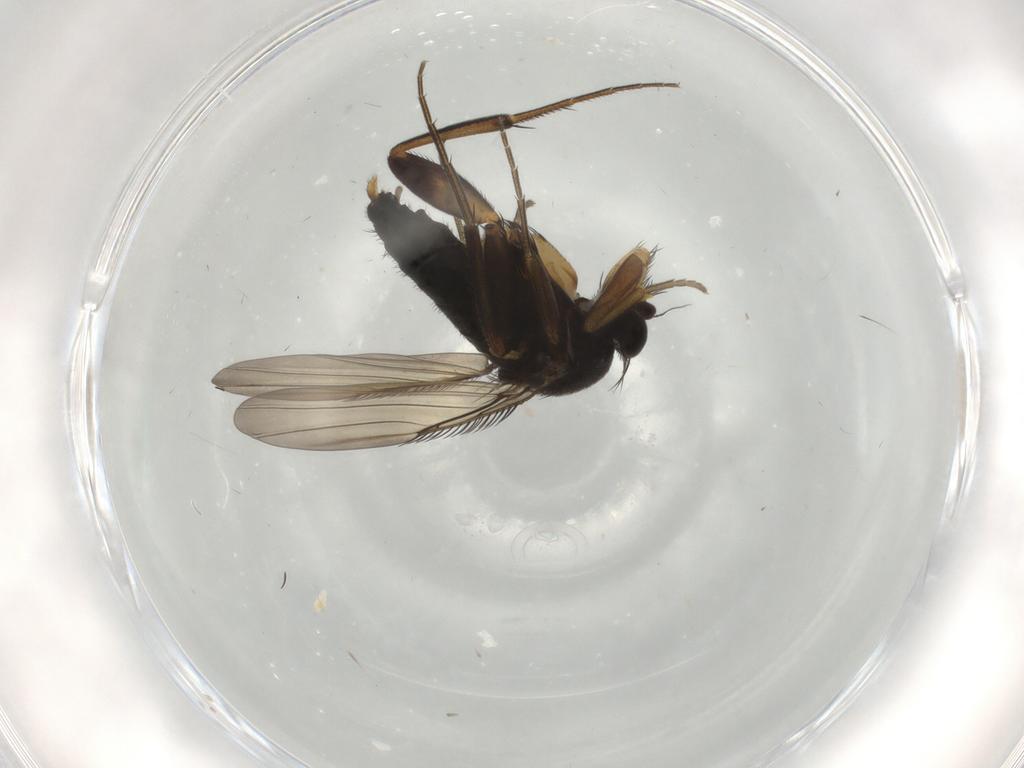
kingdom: Animalia
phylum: Arthropoda
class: Insecta
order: Diptera
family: Phoridae
